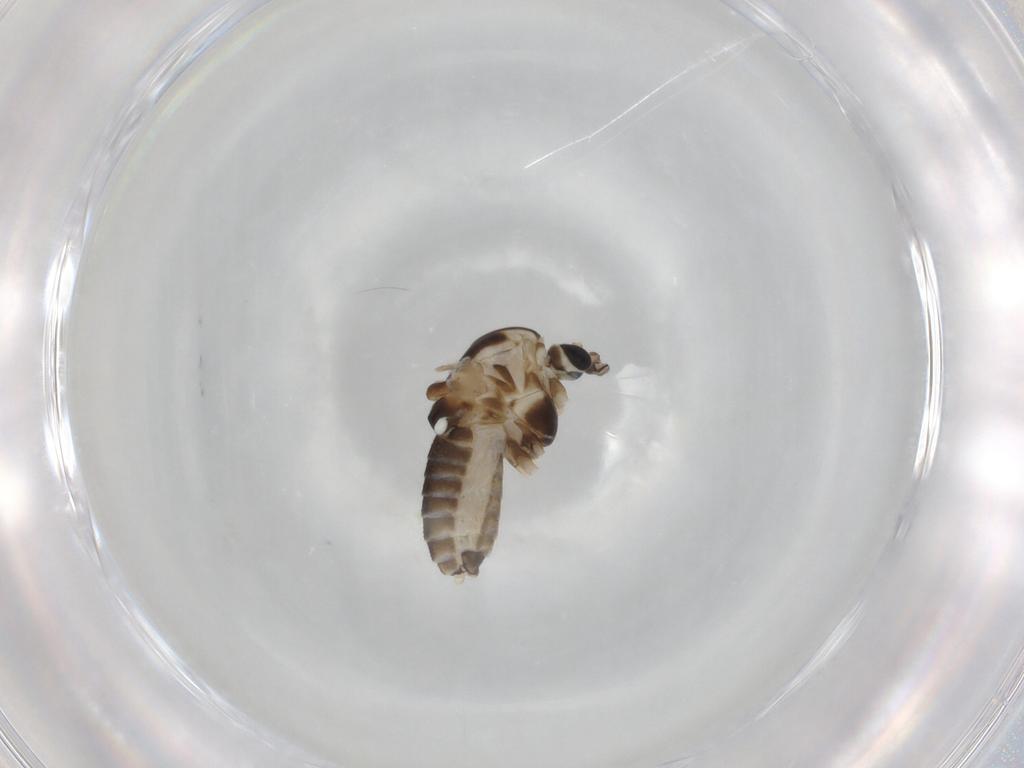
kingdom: Animalia
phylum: Arthropoda
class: Insecta
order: Diptera
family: Chironomidae
